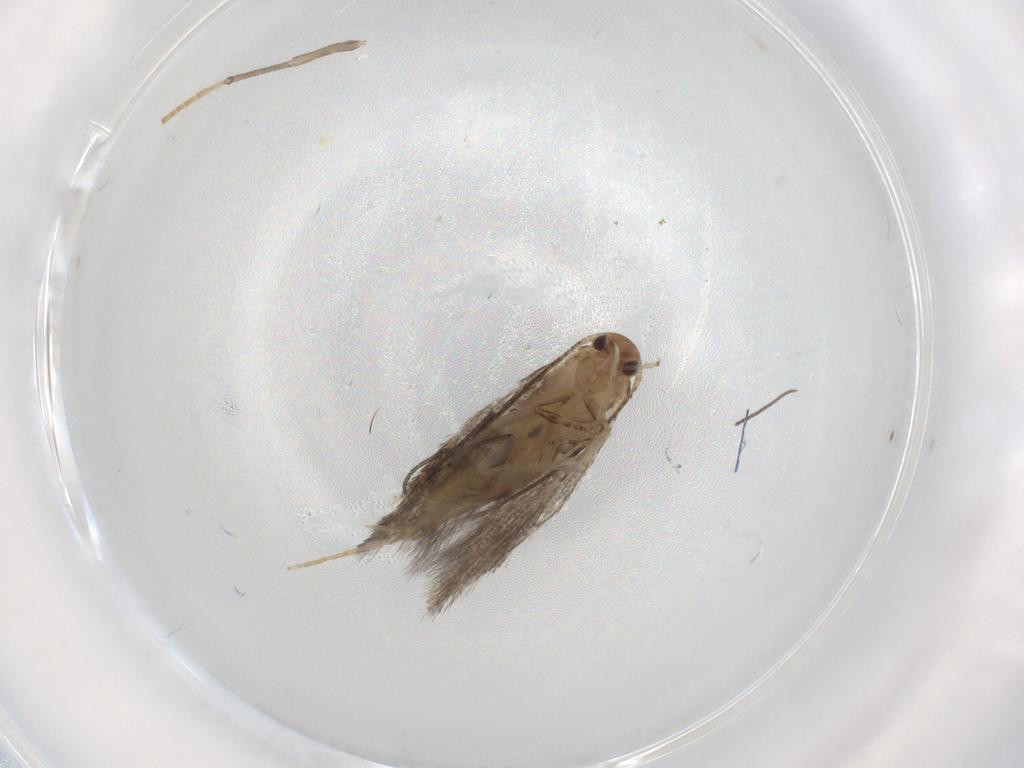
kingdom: Animalia
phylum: Arthropoda
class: Insecta
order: Lepidoptera
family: Elachistidae
